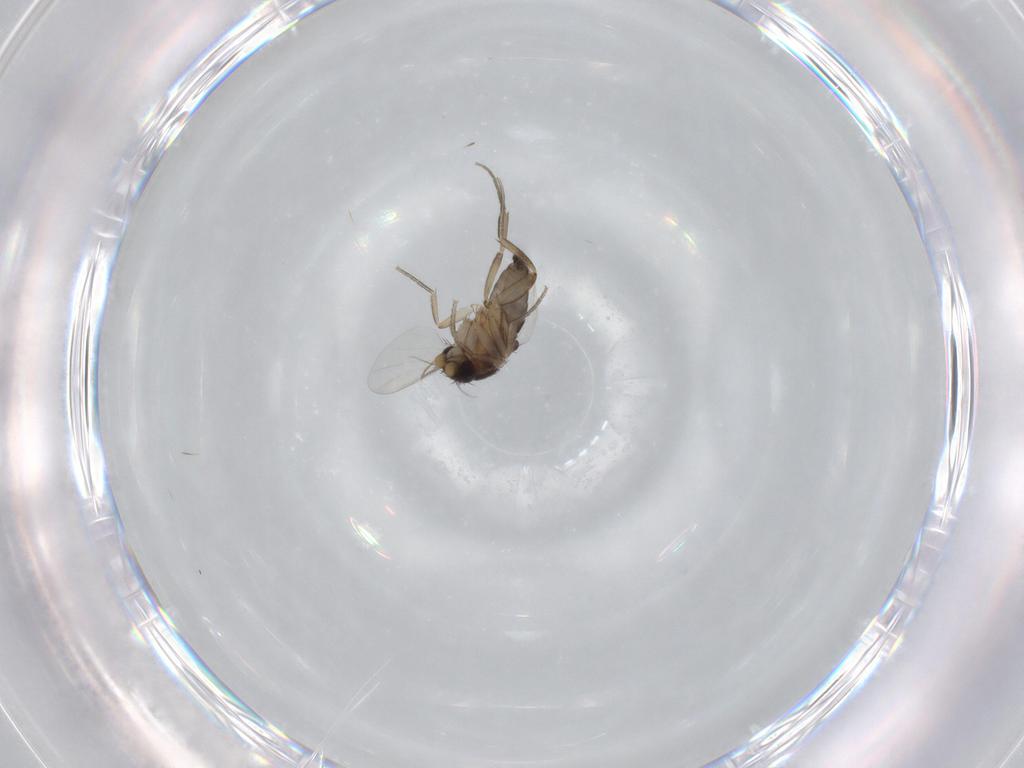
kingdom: Animalia
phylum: Arthropoda
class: Insecta
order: Diptera
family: Phoridae
